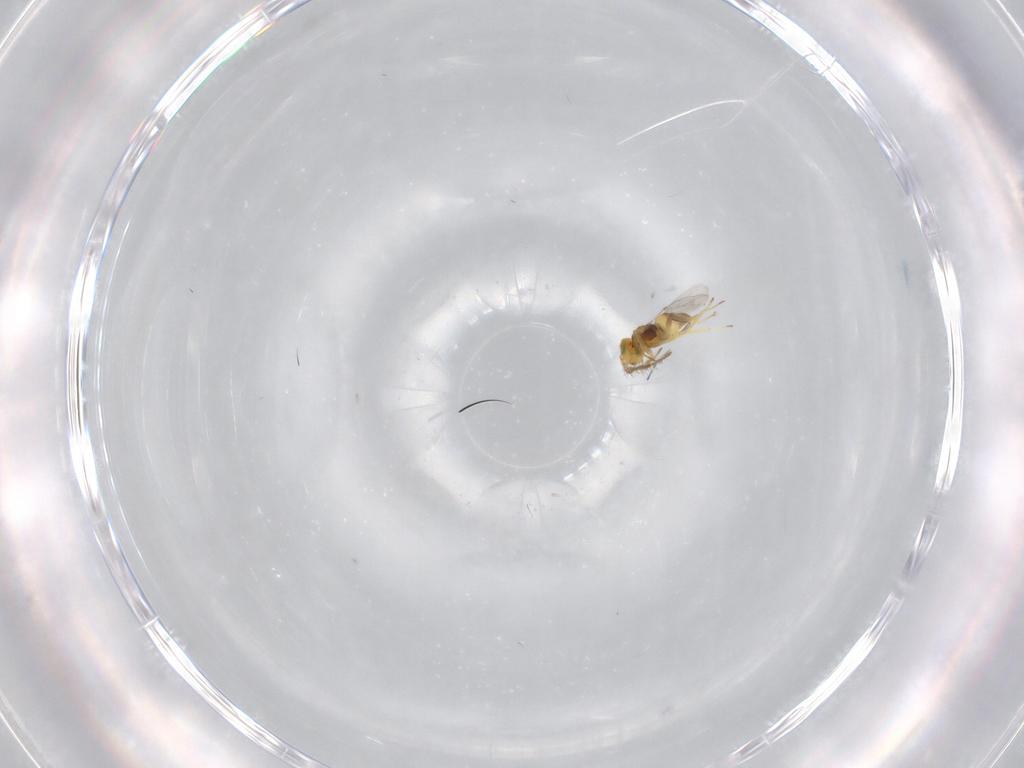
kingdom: Animalia
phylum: Arthropoda
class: Insecta
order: Hymenoptera
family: Encyrtidae
